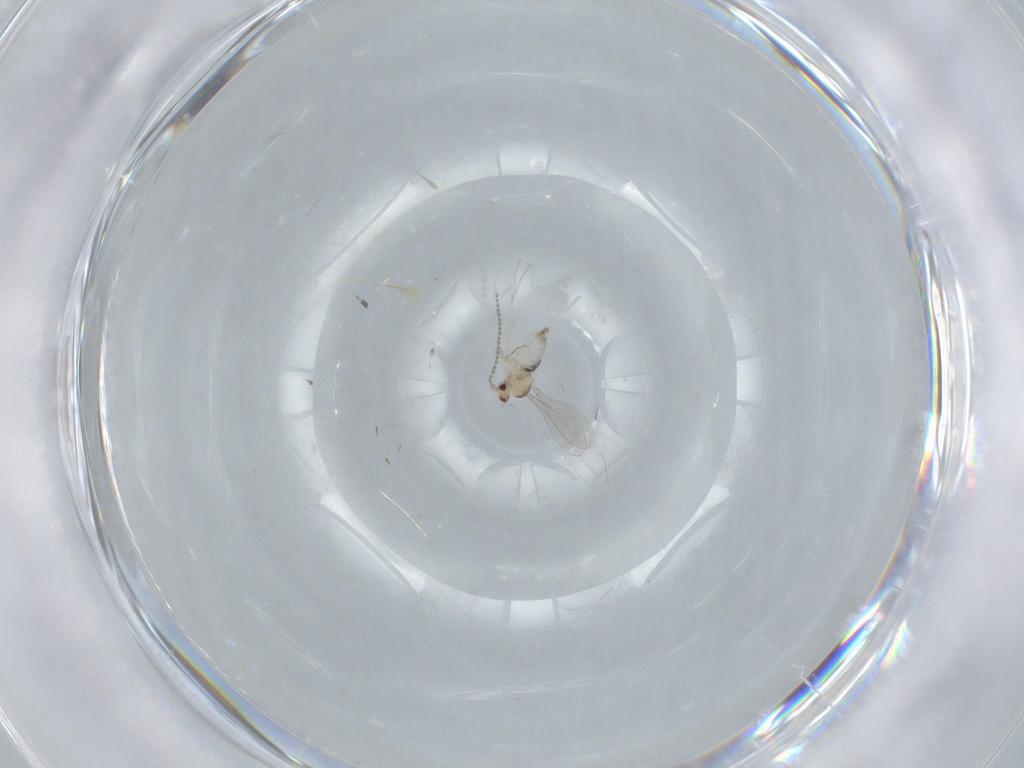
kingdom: Animalia
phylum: Arthropoda
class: Insecta
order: Diptera
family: Cecidomyiidae
